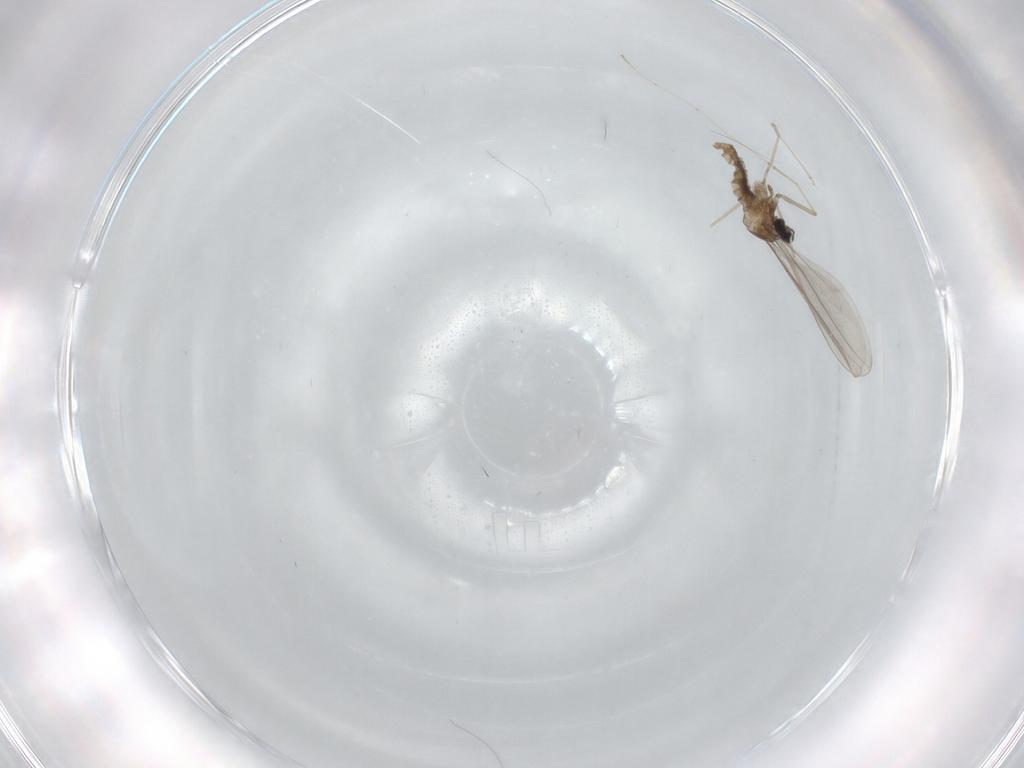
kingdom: Animalia
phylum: Arthropoda
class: Insecta
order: Diptera
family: Cecidomyiidae
